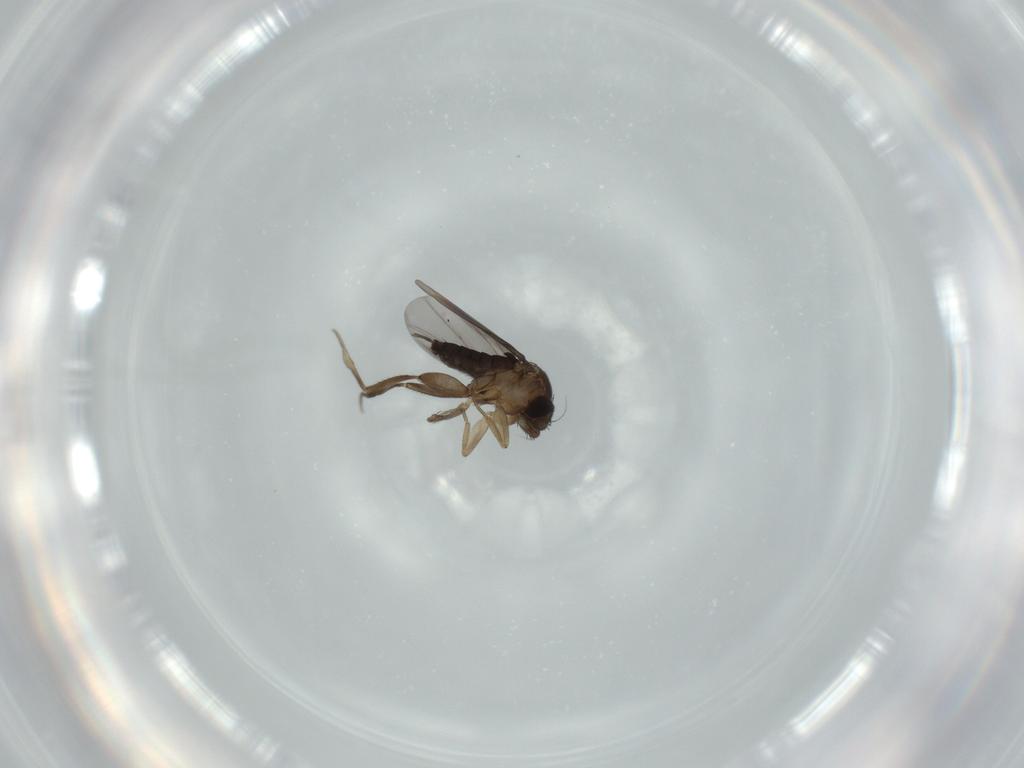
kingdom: Animalia
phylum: Arthropoda
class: Insecta
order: Diptera
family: Phoridae
